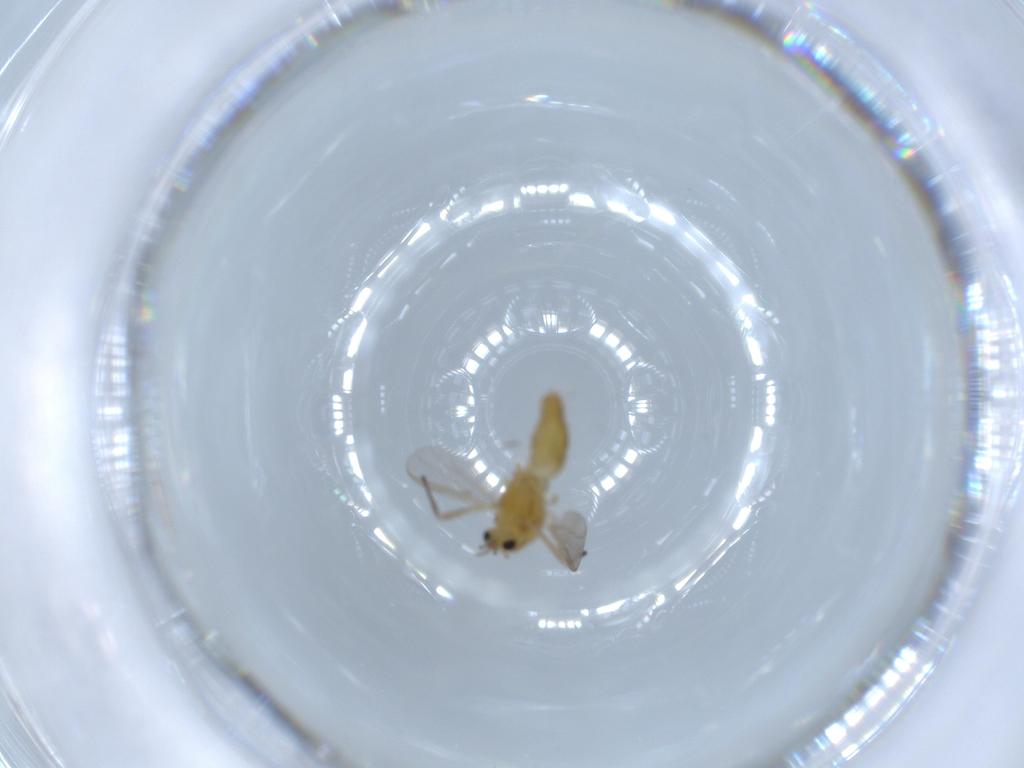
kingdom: Animalia
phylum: Arthropoda
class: Insecta
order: Diptera
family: Chironomidae
